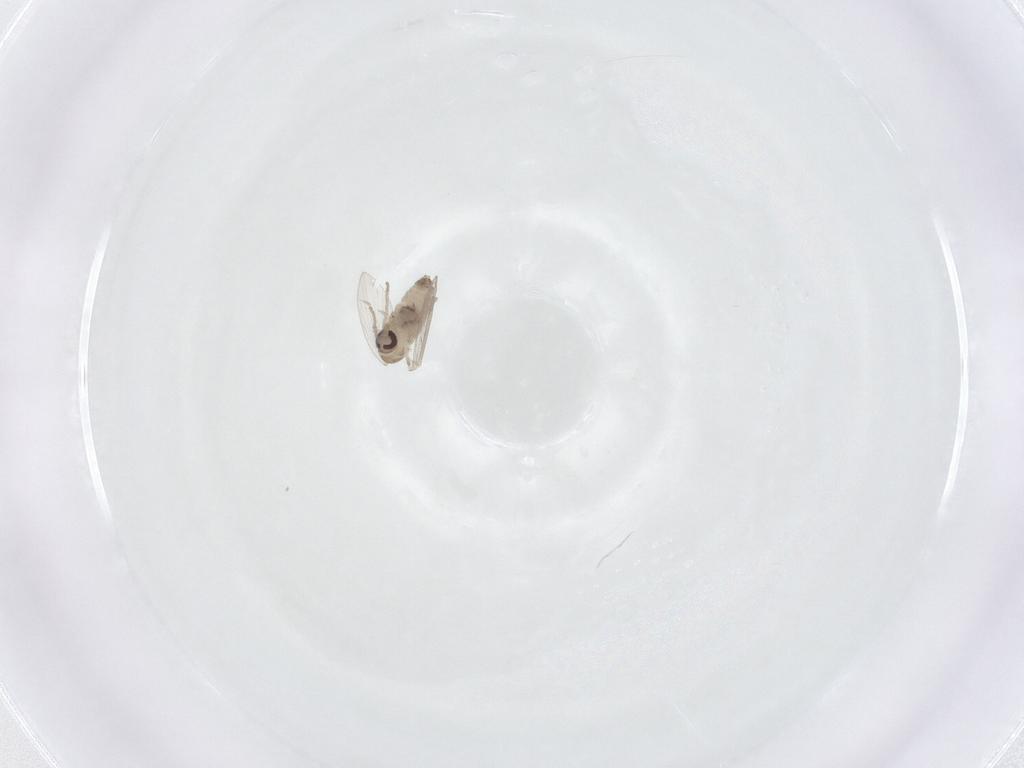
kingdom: Animalia
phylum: Arthropoda
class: Insecta
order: Diptera
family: Psychodidae
